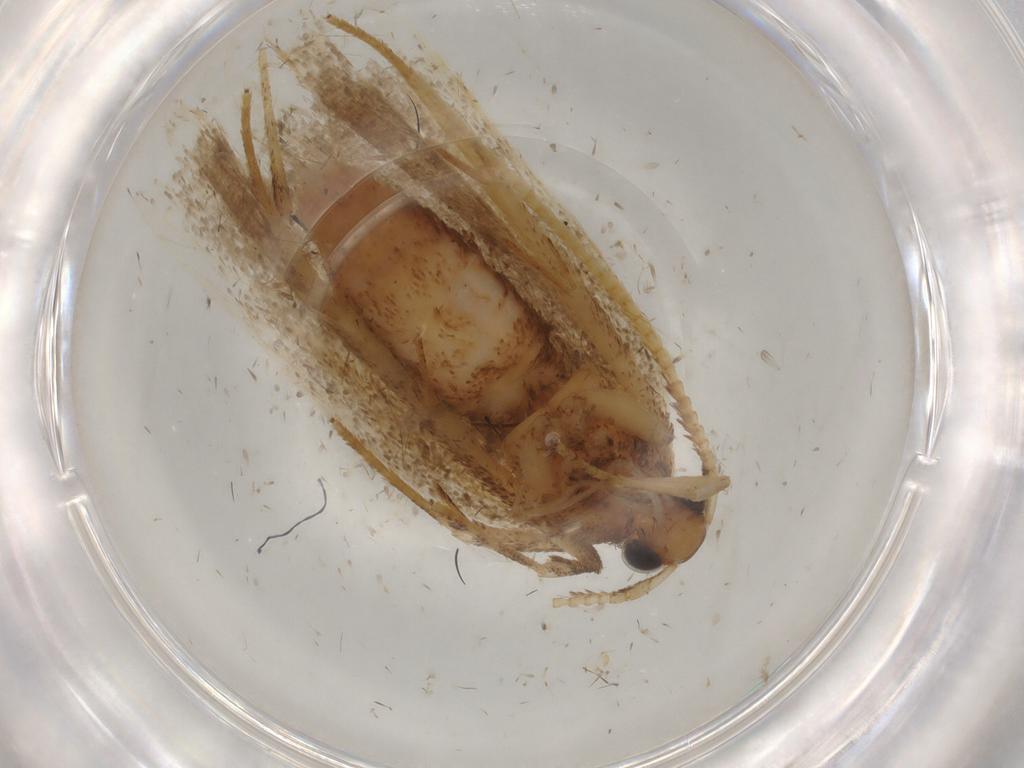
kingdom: Animalia
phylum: Arthropoda
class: Insecta
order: Lepidoptera
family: Lecithoceridae
